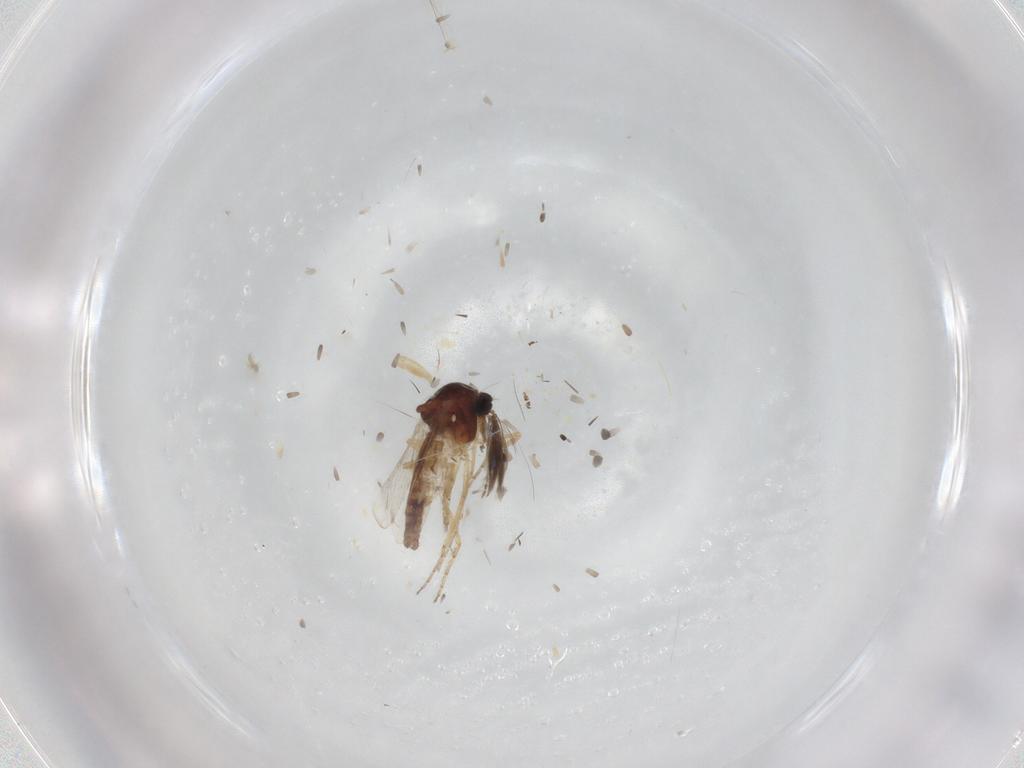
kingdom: Animalia
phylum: Arthropoda
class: Insecta
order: Diptera
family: Ceratopogonidae
